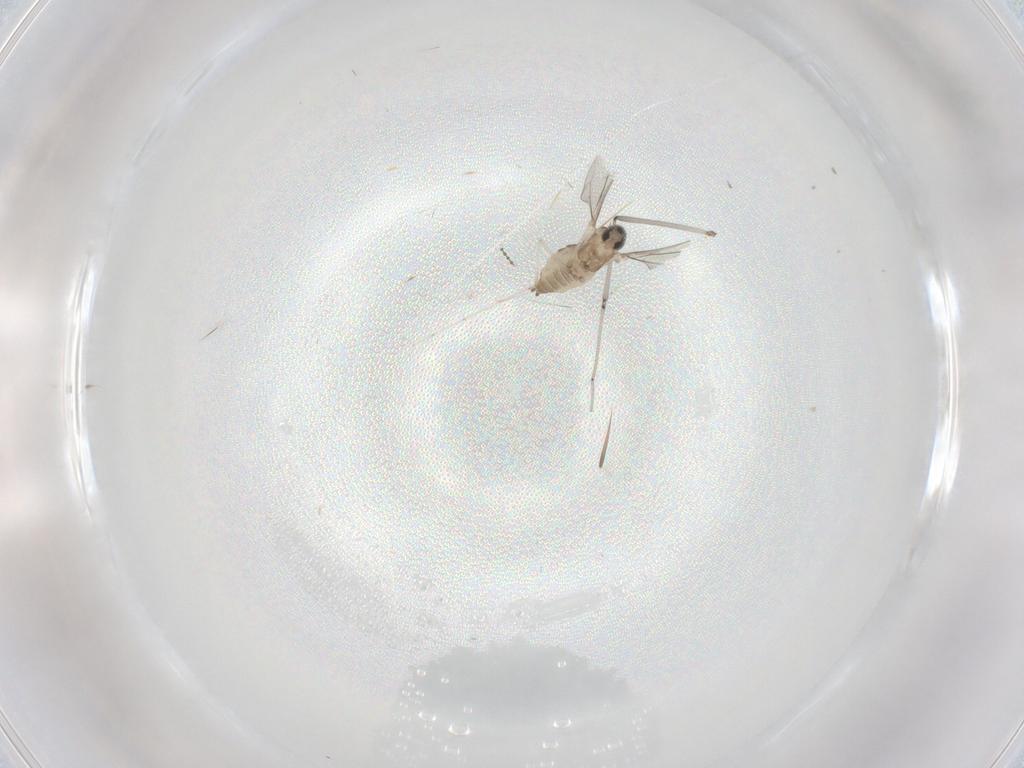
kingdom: Animalia
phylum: Arthropoda
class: Insecta
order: Diptera
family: Cecidomyiidae
